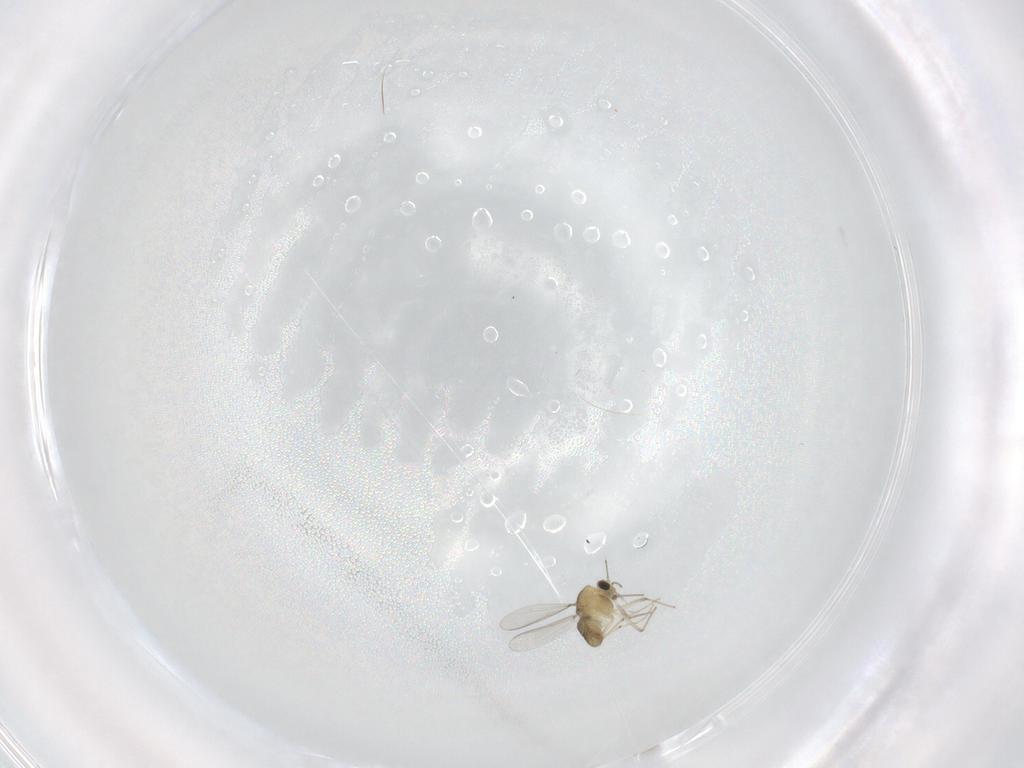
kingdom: Animalia
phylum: Arthropoda
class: Insecta
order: Diptera
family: Chironomidae
